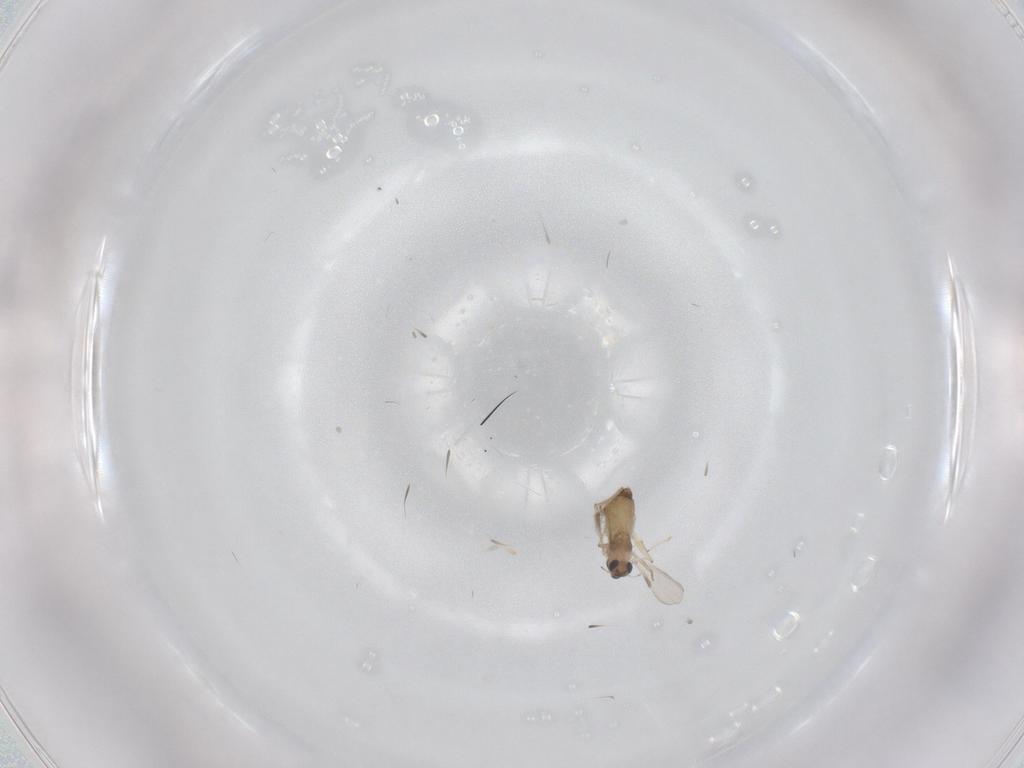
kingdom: Animalia
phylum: Arthropoda
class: Insecta
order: Diptera
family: Chironomidae
